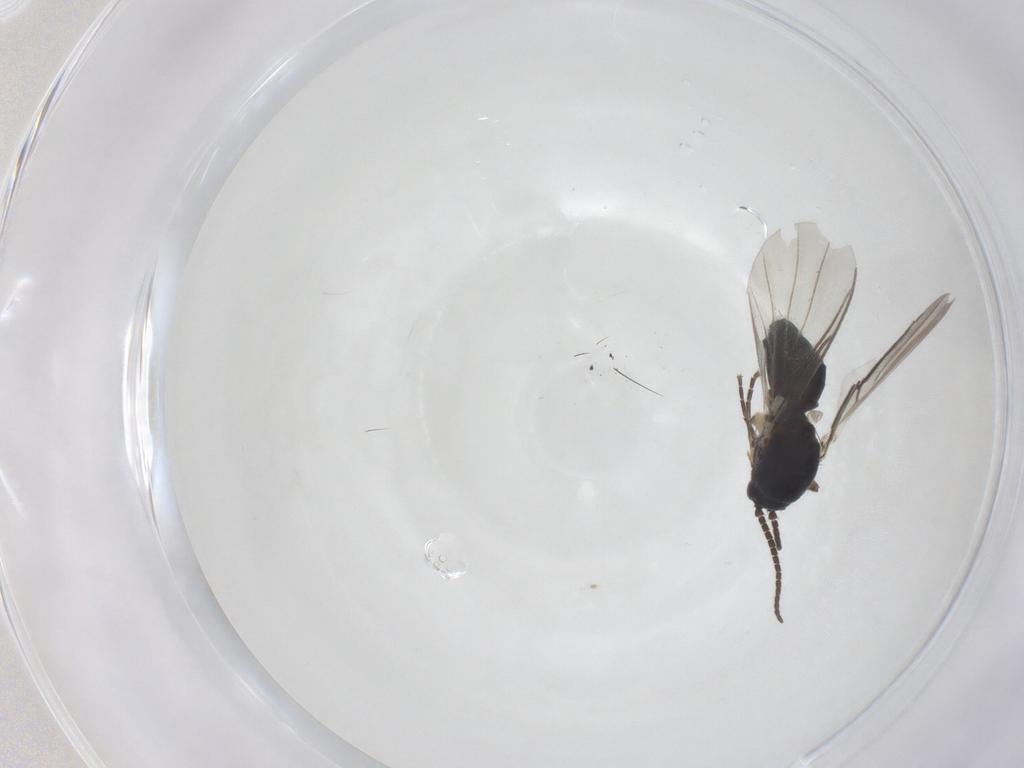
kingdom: Animalia
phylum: Arthropoda
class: Insecta
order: Diptera
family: Mycetophilidae
